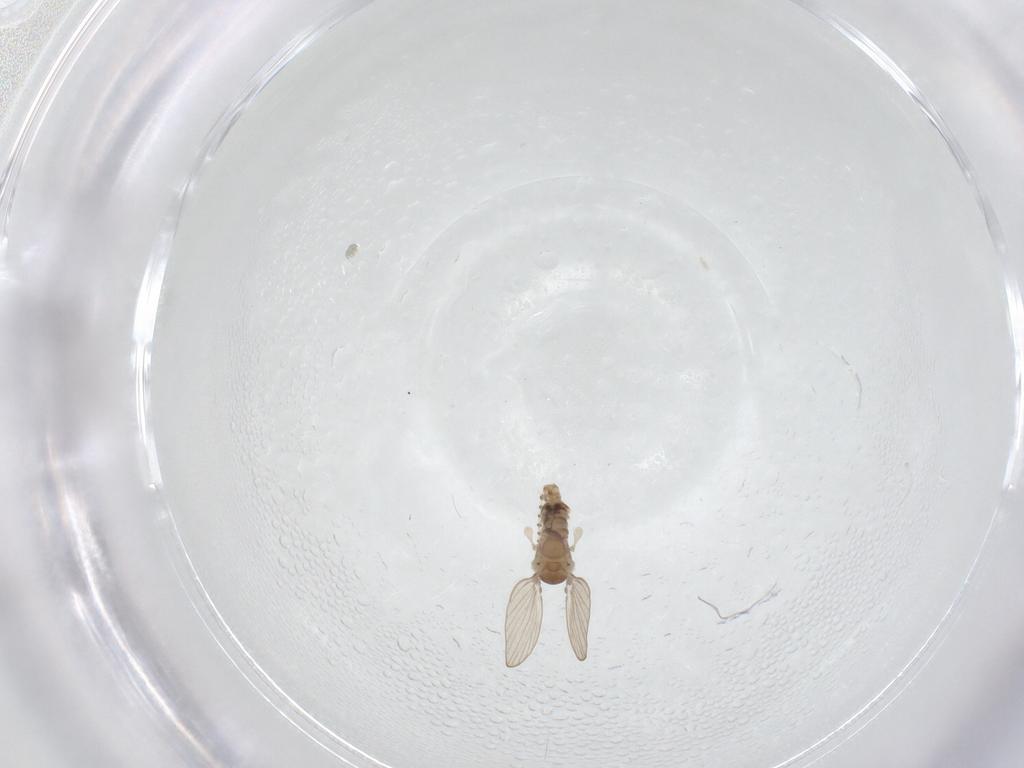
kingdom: Animalia
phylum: Arthropoda
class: Insecta
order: Diptera
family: Psychodidae
